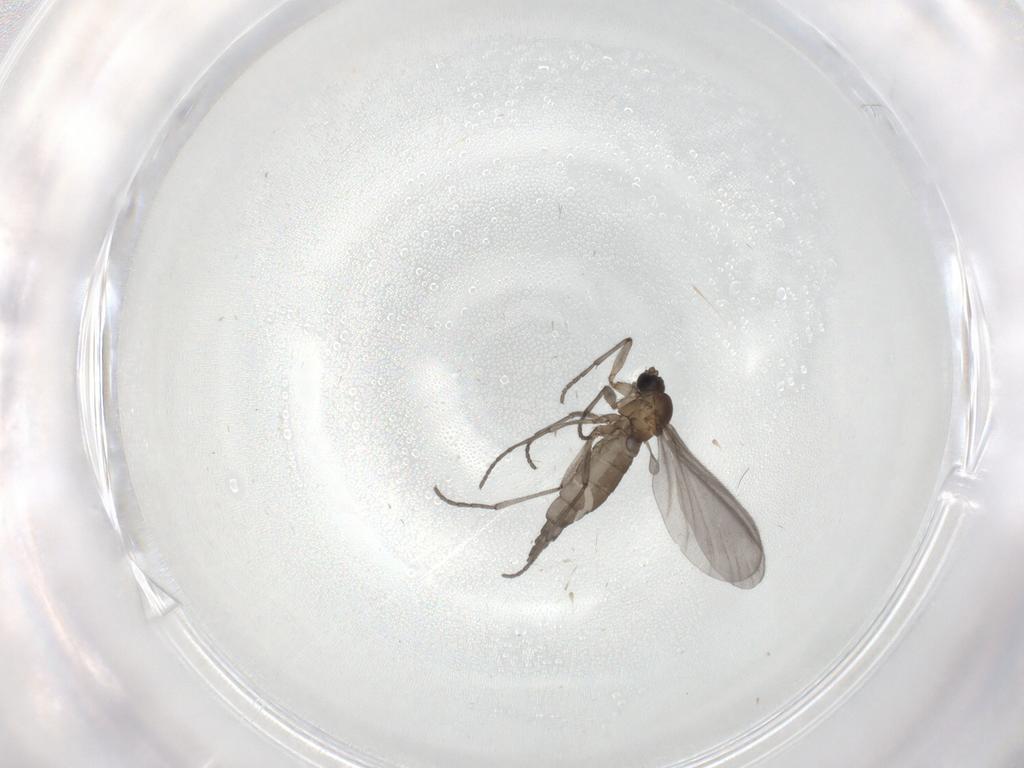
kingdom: Animalia
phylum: Arthropoda
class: Insecta
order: Diptera
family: Sciaridae
